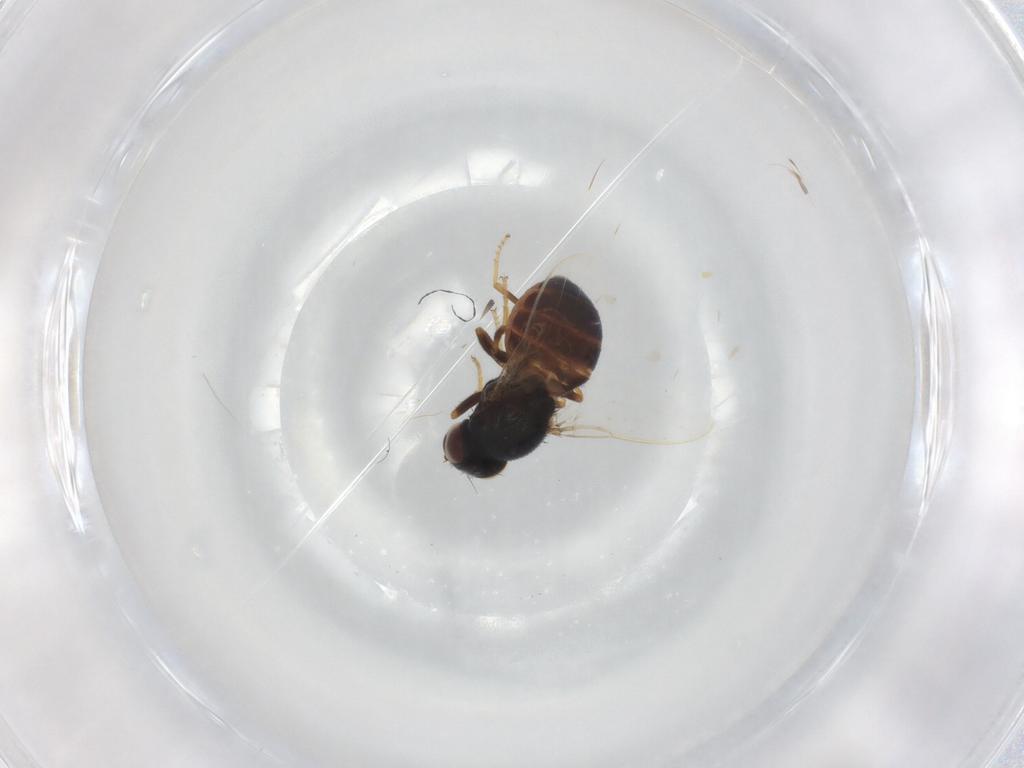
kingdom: Animalia
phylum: Arthropoda
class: Insecta
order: Diptera
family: Chloropidae
